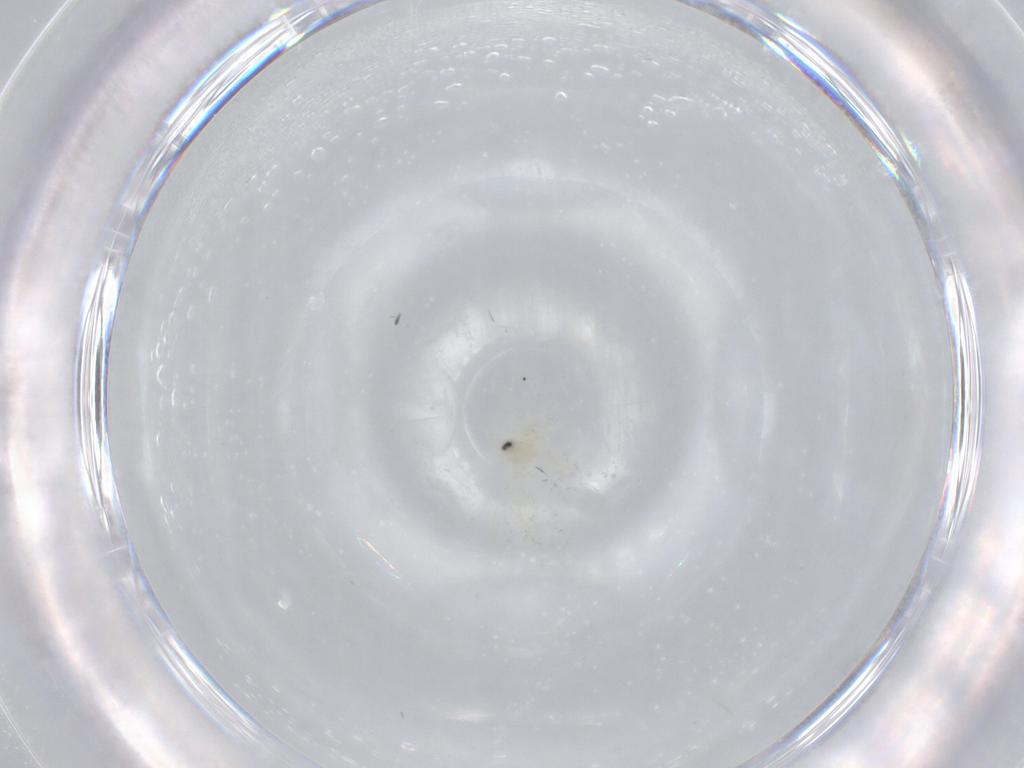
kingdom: Animalia
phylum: Arthropoda
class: Insecta
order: Hemiptera
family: Aleyrodidae
